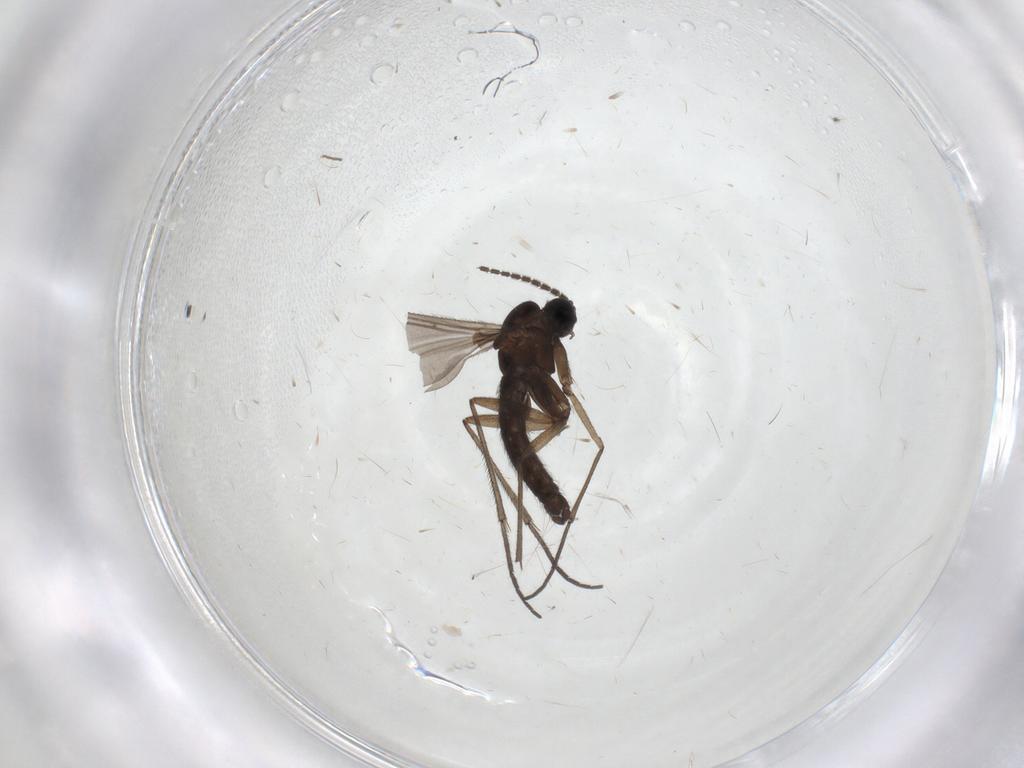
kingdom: Animalia
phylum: Arthropoda
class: Insecta
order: Diptera
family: Sciaridae
